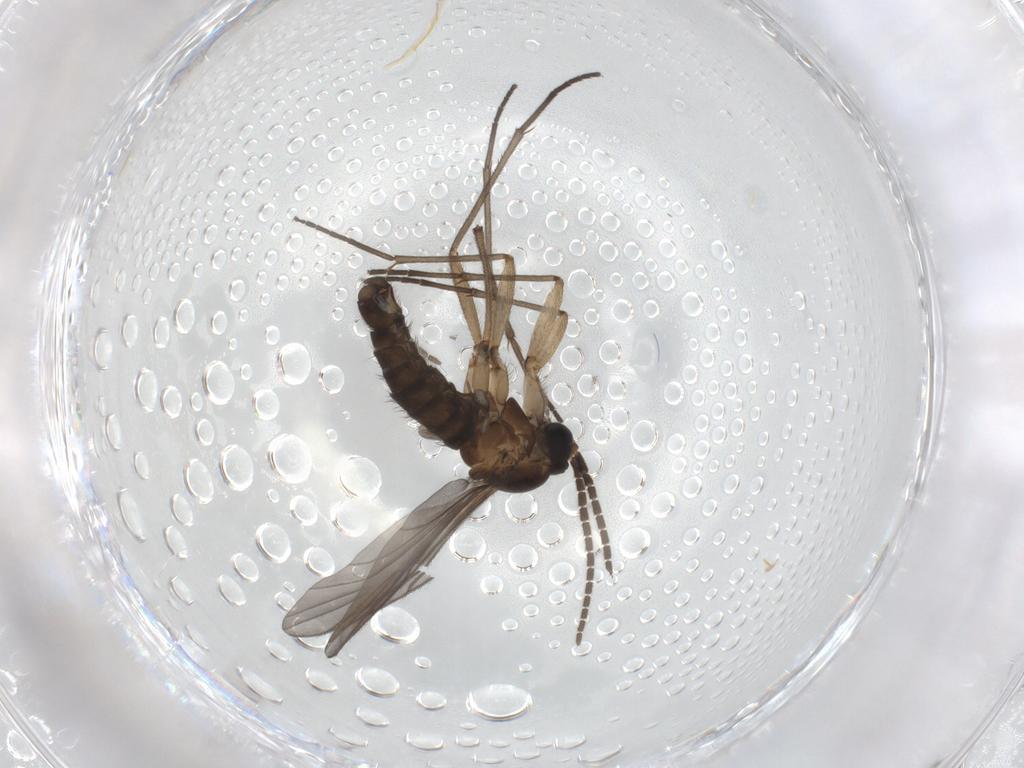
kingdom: Animalia
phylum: Arthropoda
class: Insecta
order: Diptera
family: Sciaridae
